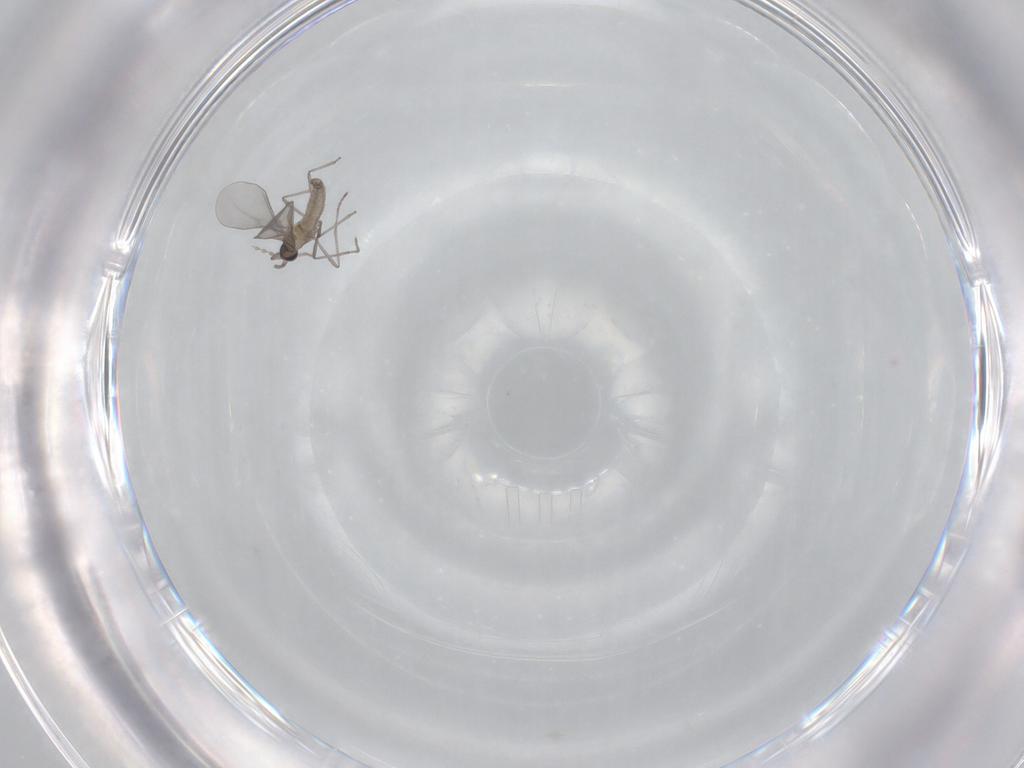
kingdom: Animalia
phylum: Arthropoda
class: Insecta
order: Diptera
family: Cecidomyiidae
